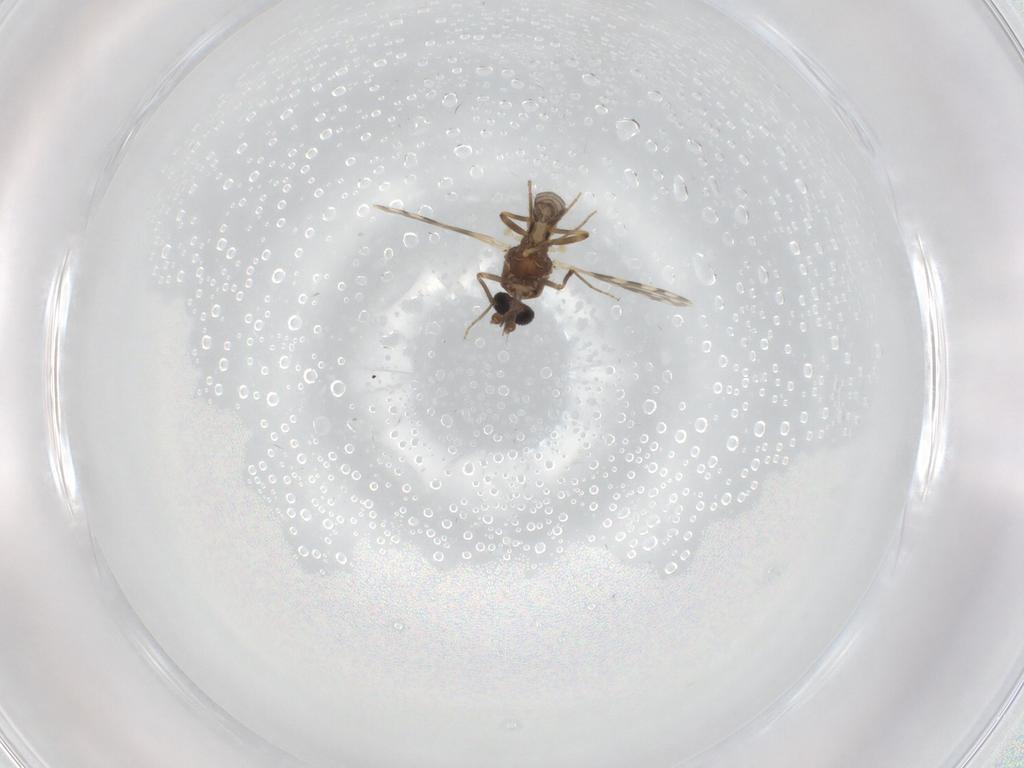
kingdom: Animalia
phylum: Arthropoda
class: Insecta
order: Diptera
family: Ceratopogonidae
